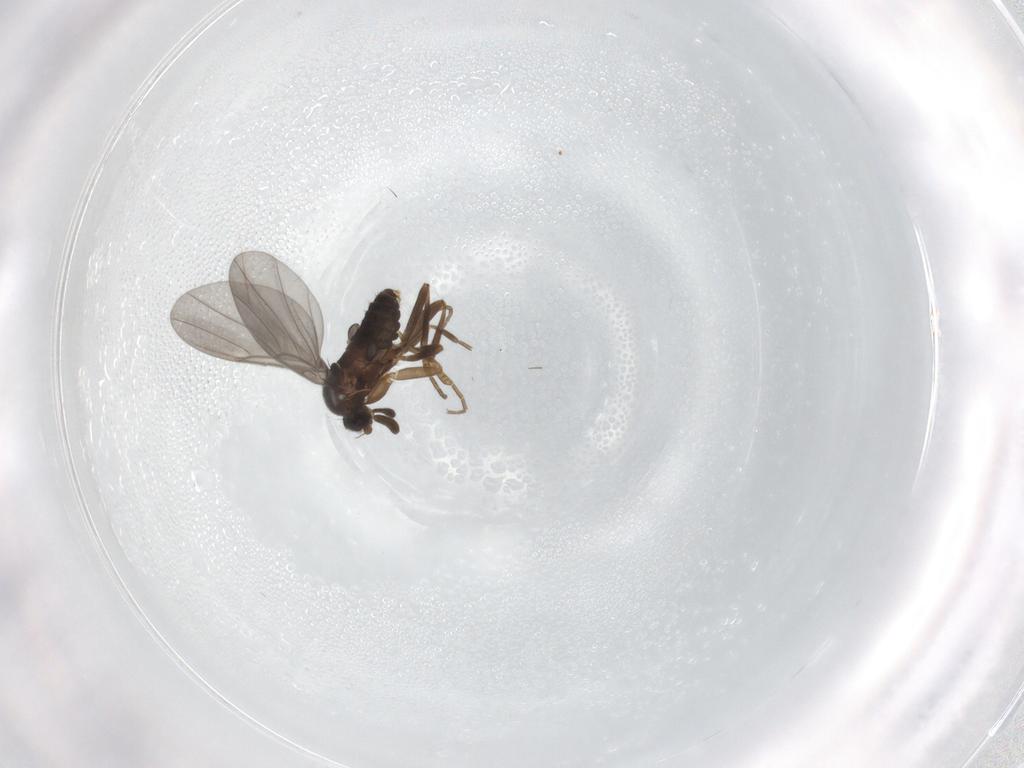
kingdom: Animalia
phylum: Arthropoda
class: Insecta
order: Diptera
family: Phoridae
